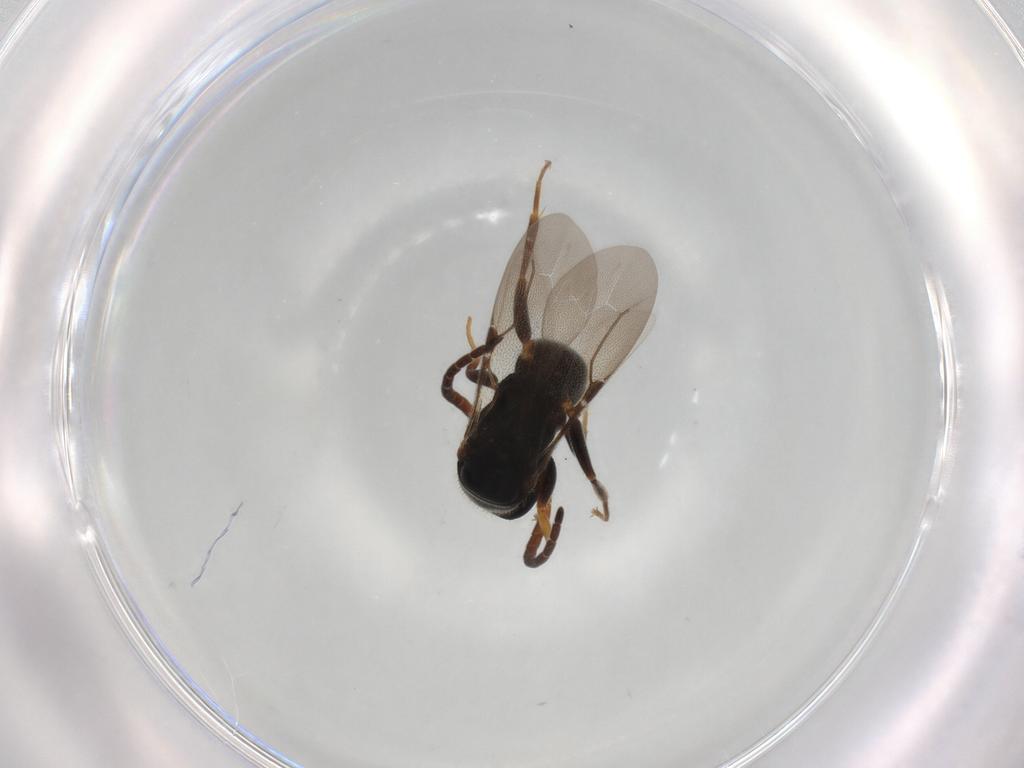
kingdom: Animalia
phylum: Arthropoda
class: Insecta
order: Hymenoptera
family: Bethylidae
